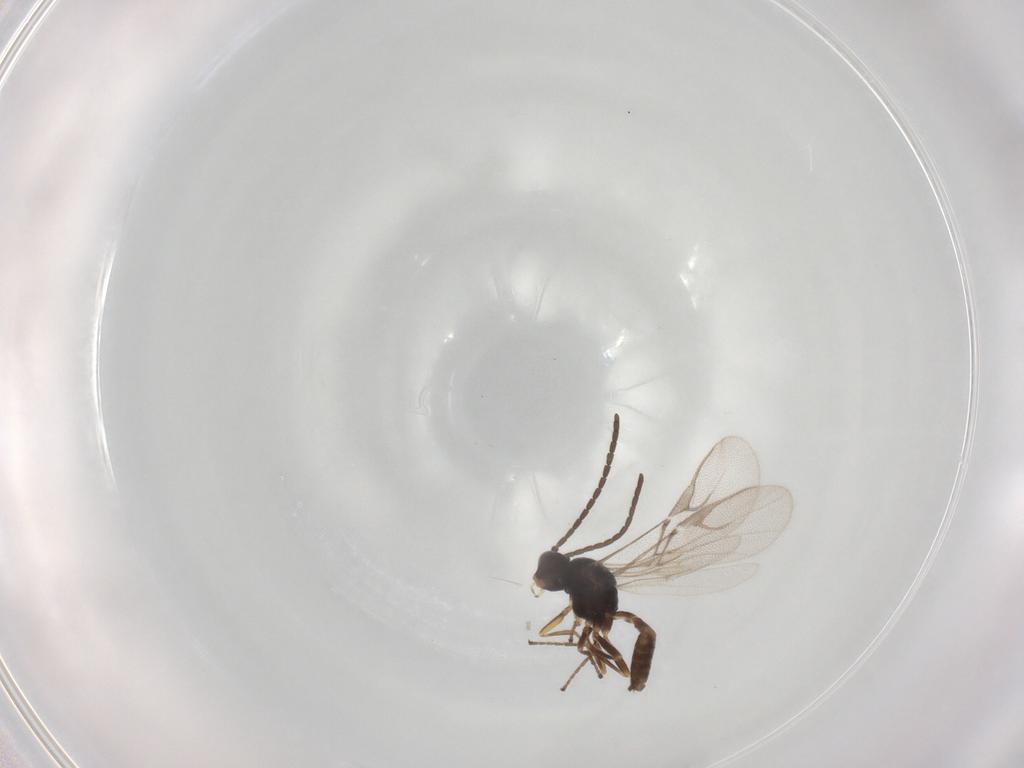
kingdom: Animalia
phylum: Arthropoda
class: Insecta
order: Hymenoptera
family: Braconidae
